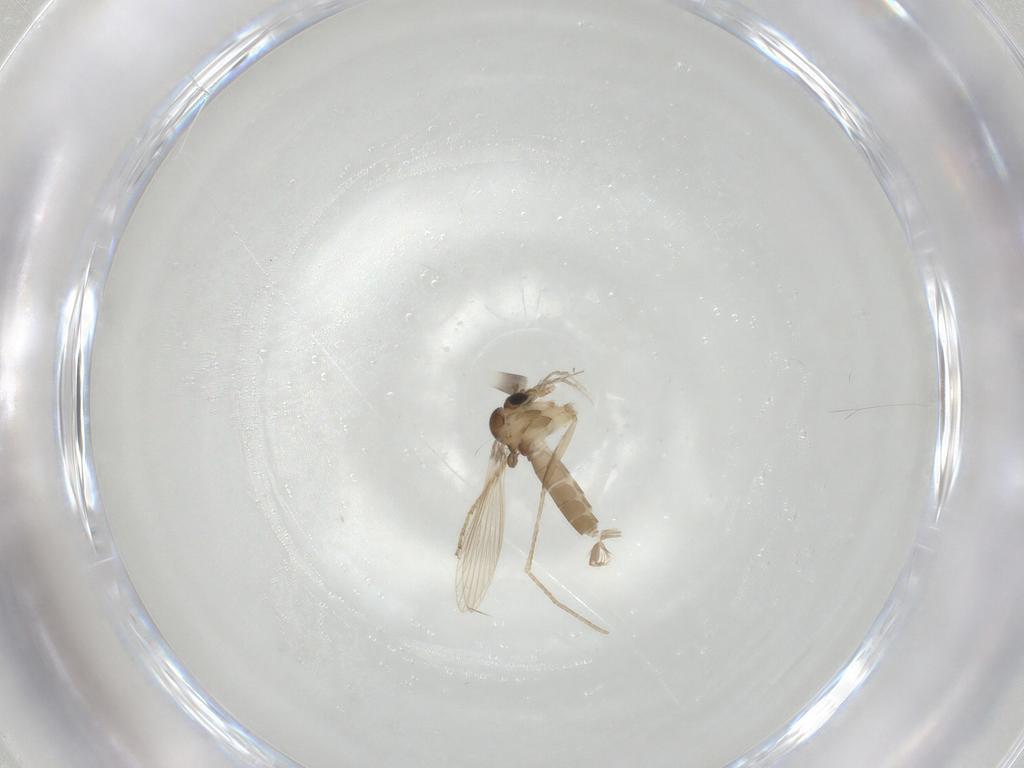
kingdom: Animalia
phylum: Arthropoda
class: Insecta
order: Diptera
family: Psychodidae
